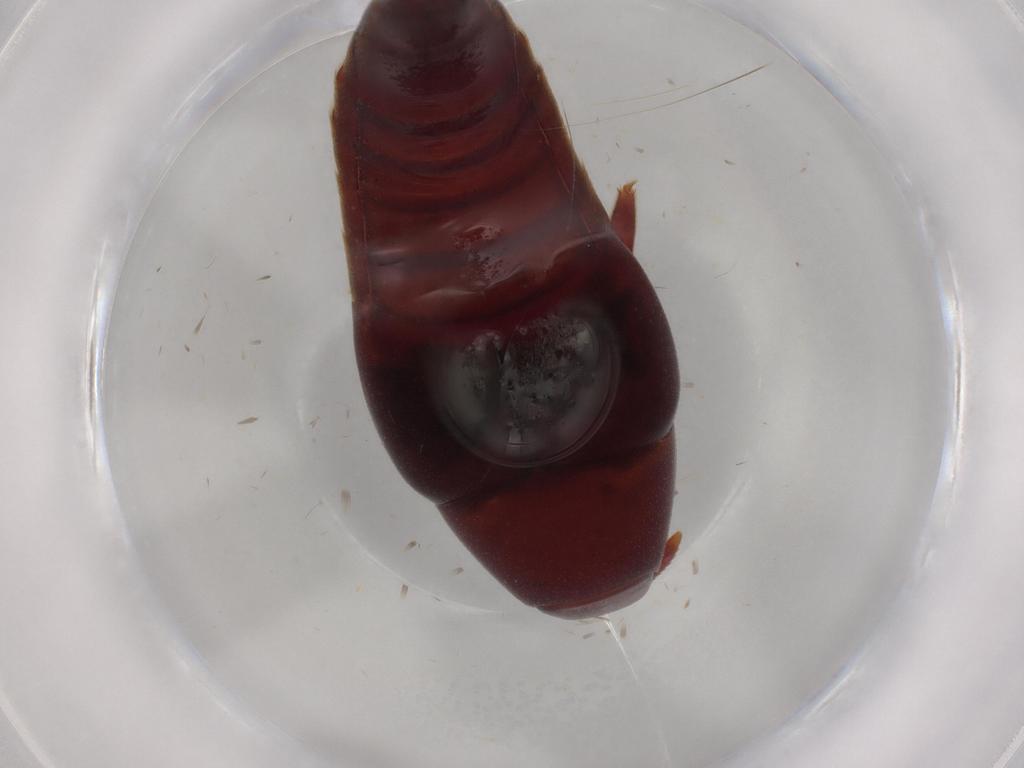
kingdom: Animalia
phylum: Arthropoda
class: Insecta
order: Coleoptera
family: Staphylinidae
